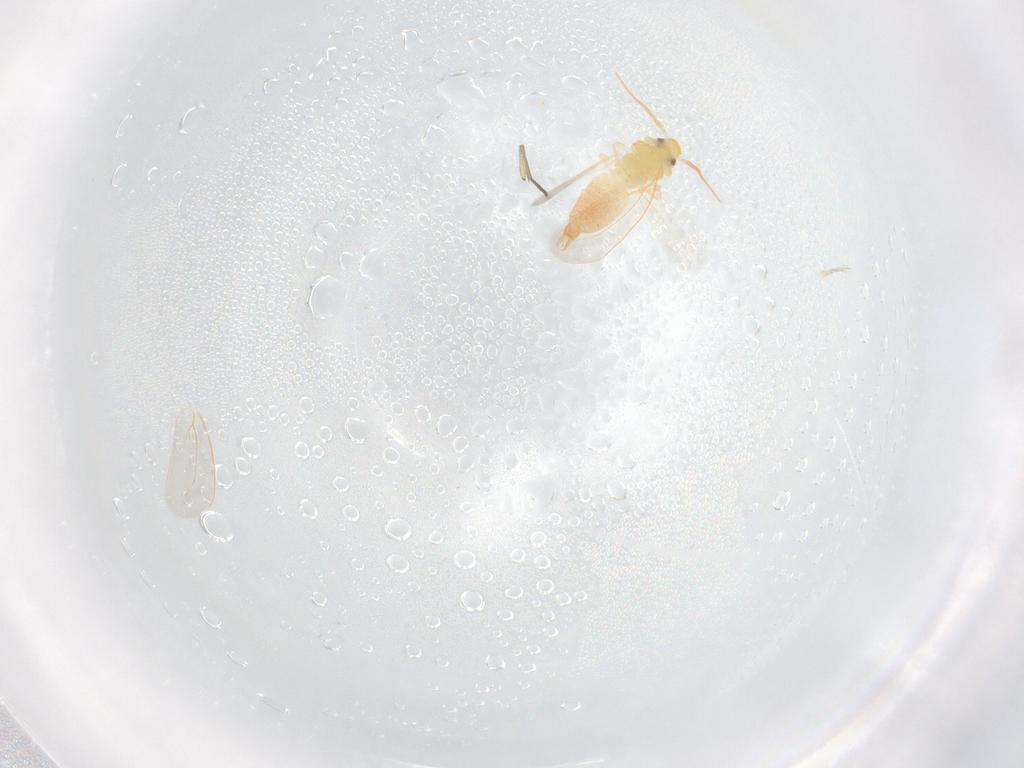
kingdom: Animalia
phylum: Arthropoda
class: Insecta
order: Hemiptera
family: Aleyrodidae
